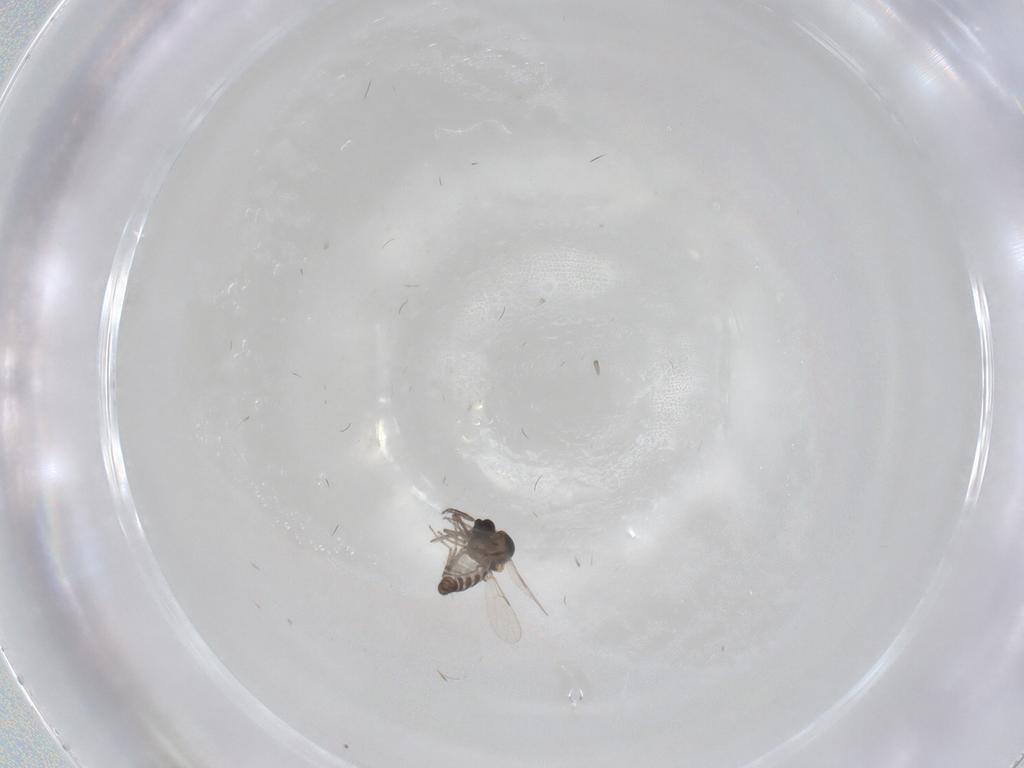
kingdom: Animalia
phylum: Arthropoda
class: Insecta
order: Diptera
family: Ceratopogonidae
